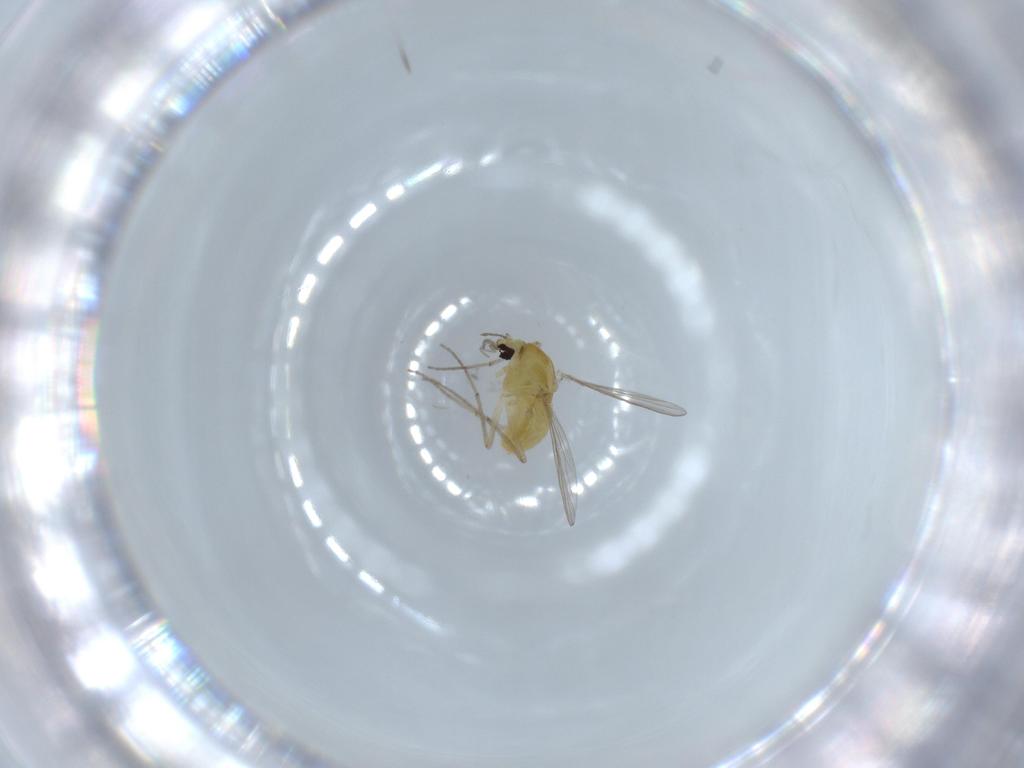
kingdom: Animalia
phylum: Arthropoda
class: Insecta
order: Diptera
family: Chironomidae
